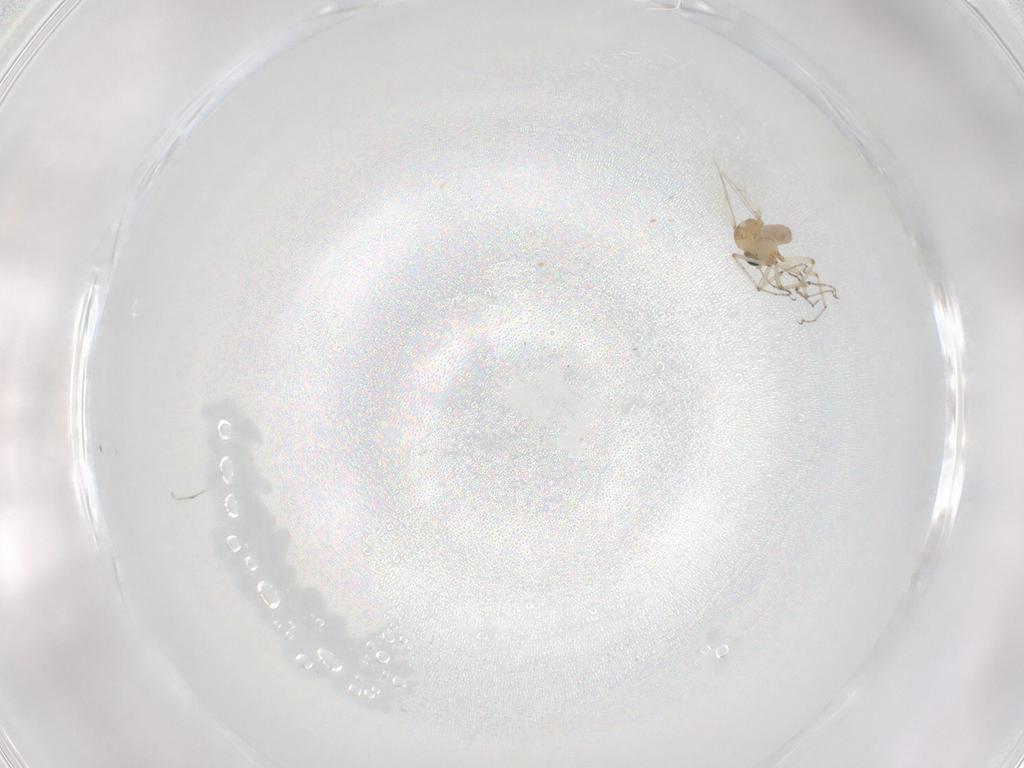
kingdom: Animalia
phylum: Arthropoda
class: Insecta
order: Diptera
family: Ceratopogonidae
